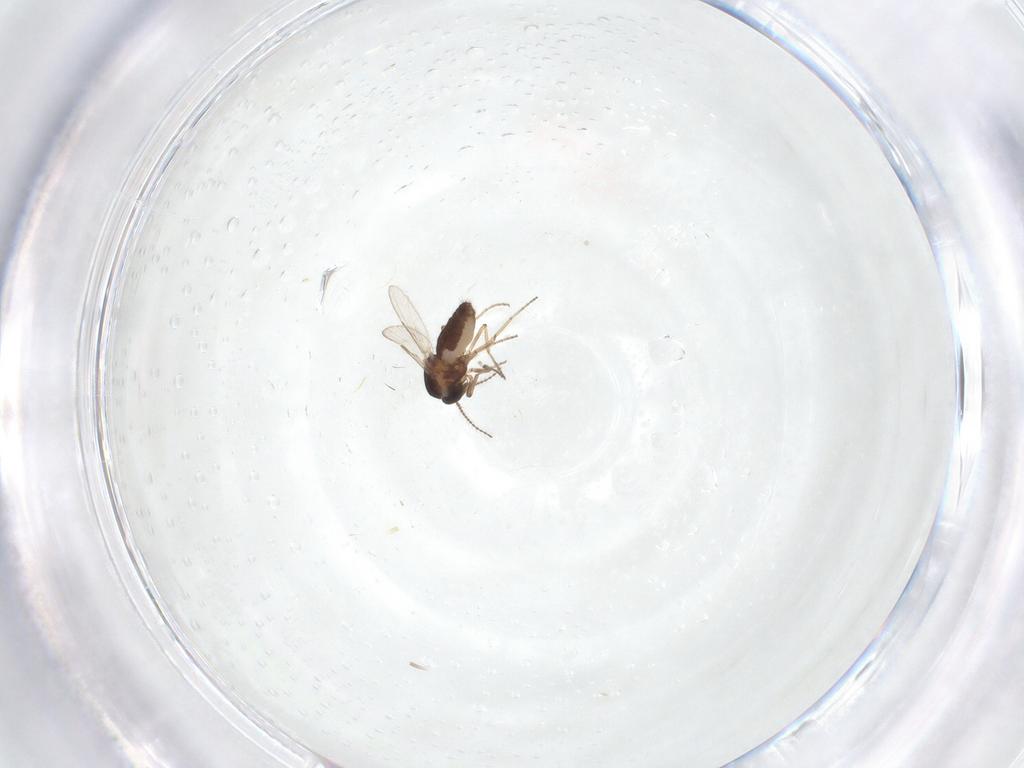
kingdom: Animalia
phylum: Arthropoda
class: Insecta
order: Diptera
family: Ceratopogonidae
